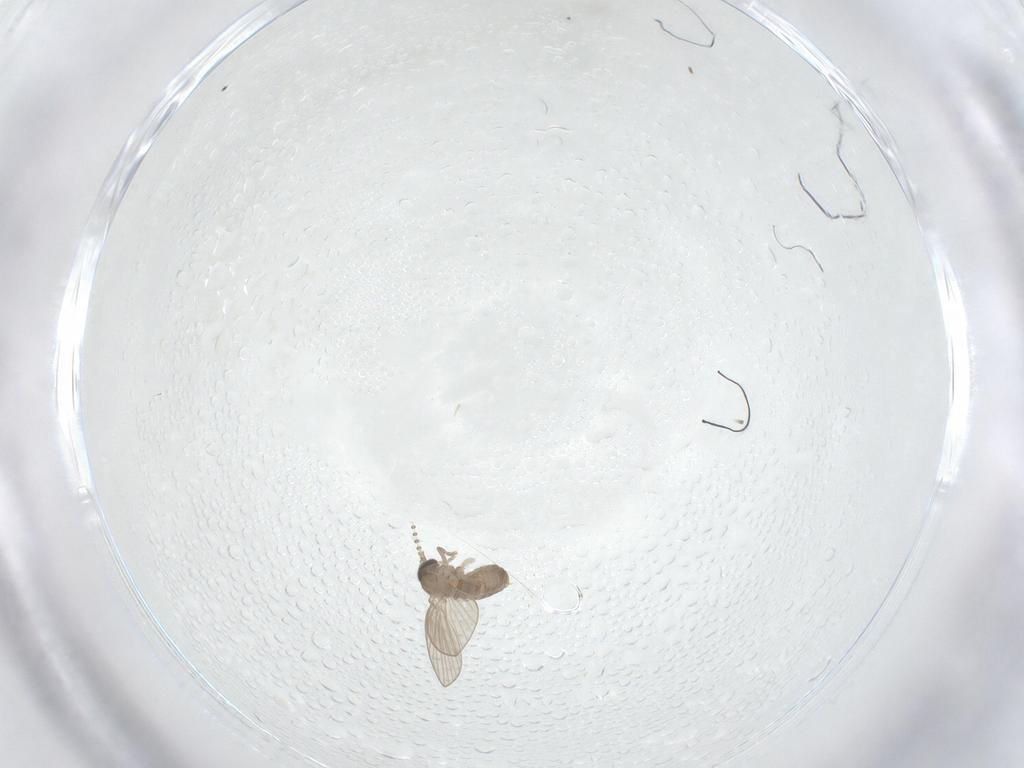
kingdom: Animalia
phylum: Arthropoda
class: Insecta
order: Diptera
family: Psychodidae
